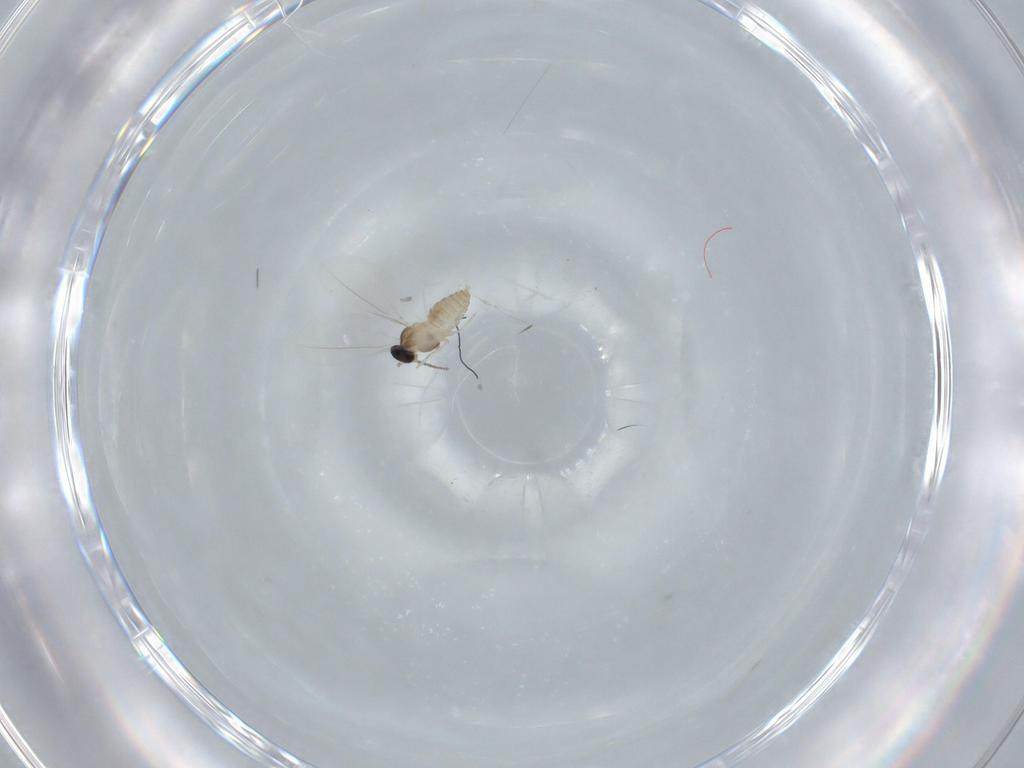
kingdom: Animalia
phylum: Arthropoda
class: Insecta
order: Diptera
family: Cecidomyiidae
